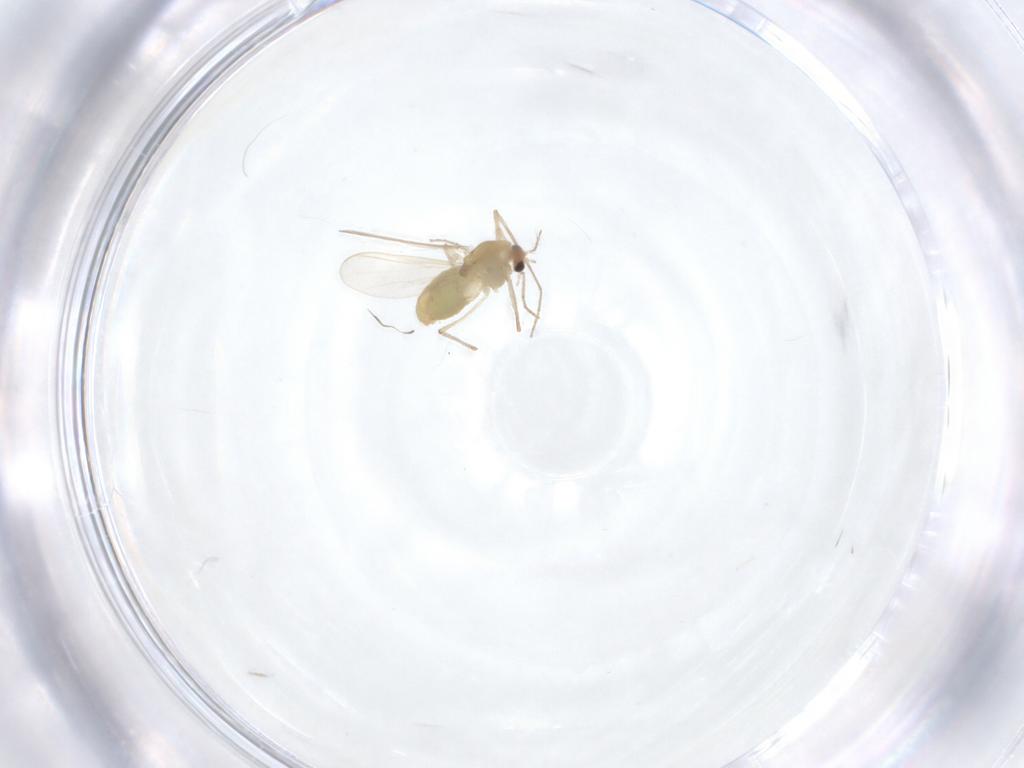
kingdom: Animalia
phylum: Arthropoda
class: Insecta
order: Diptera
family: Chironomidae
